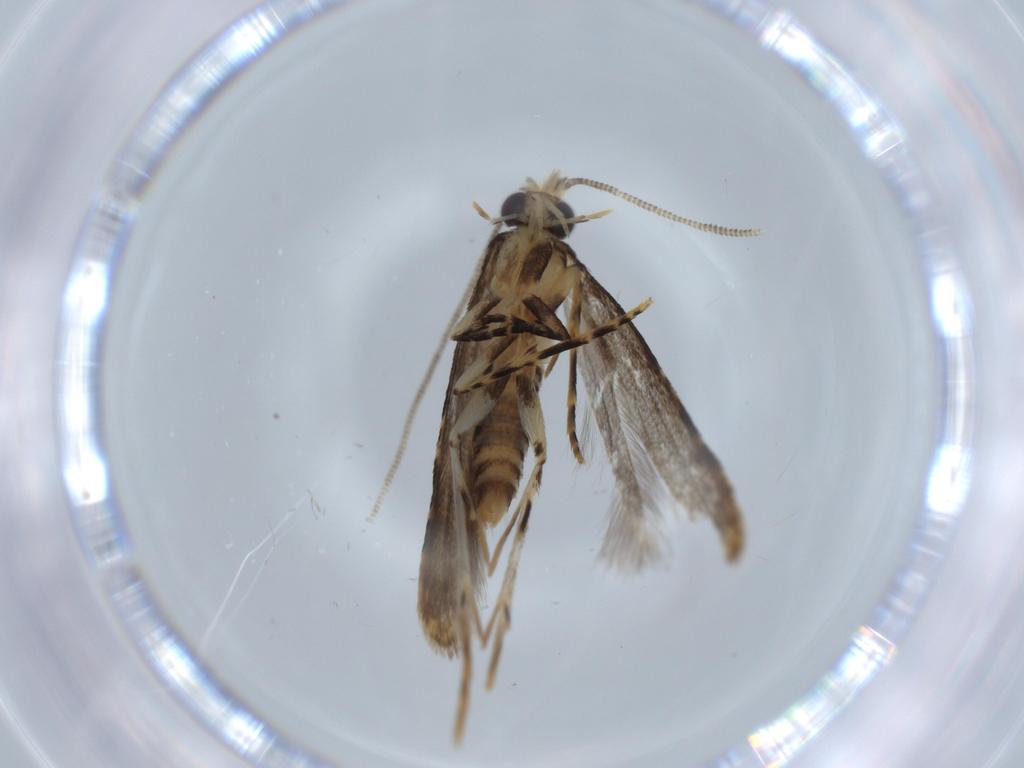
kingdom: Animalia
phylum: Arthropoda
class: Insecta
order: Lepidoptera
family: Tineidae
